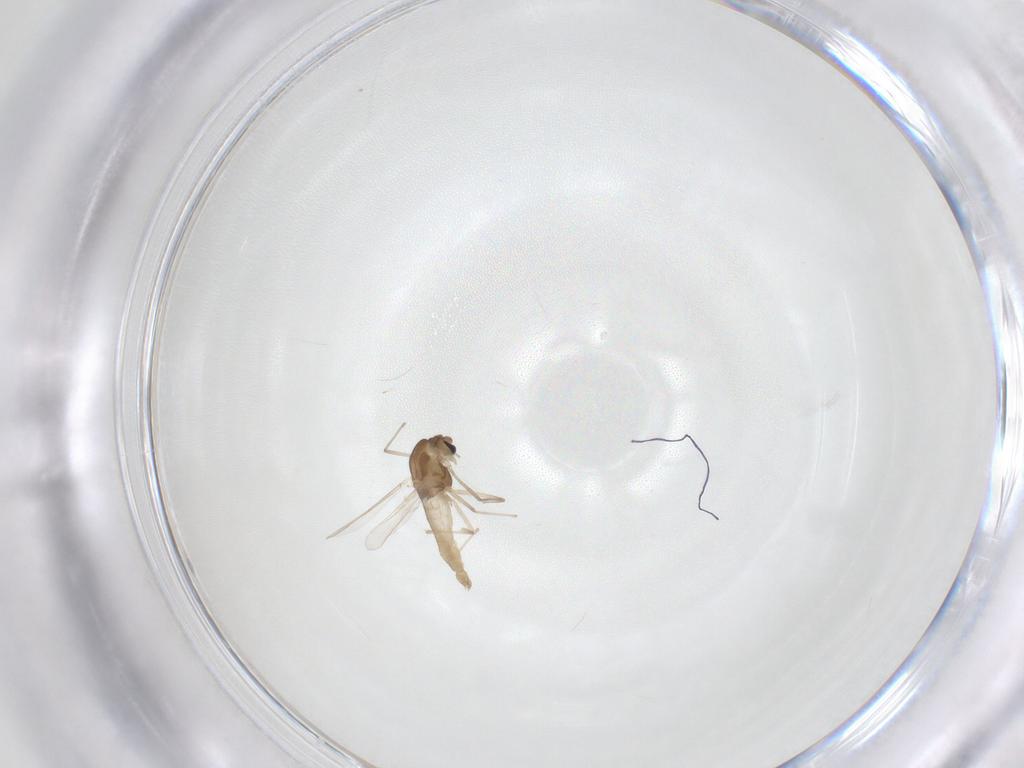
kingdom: Animalia
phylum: Arthropoda
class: Insecta
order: Diptera
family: Chironomidae
